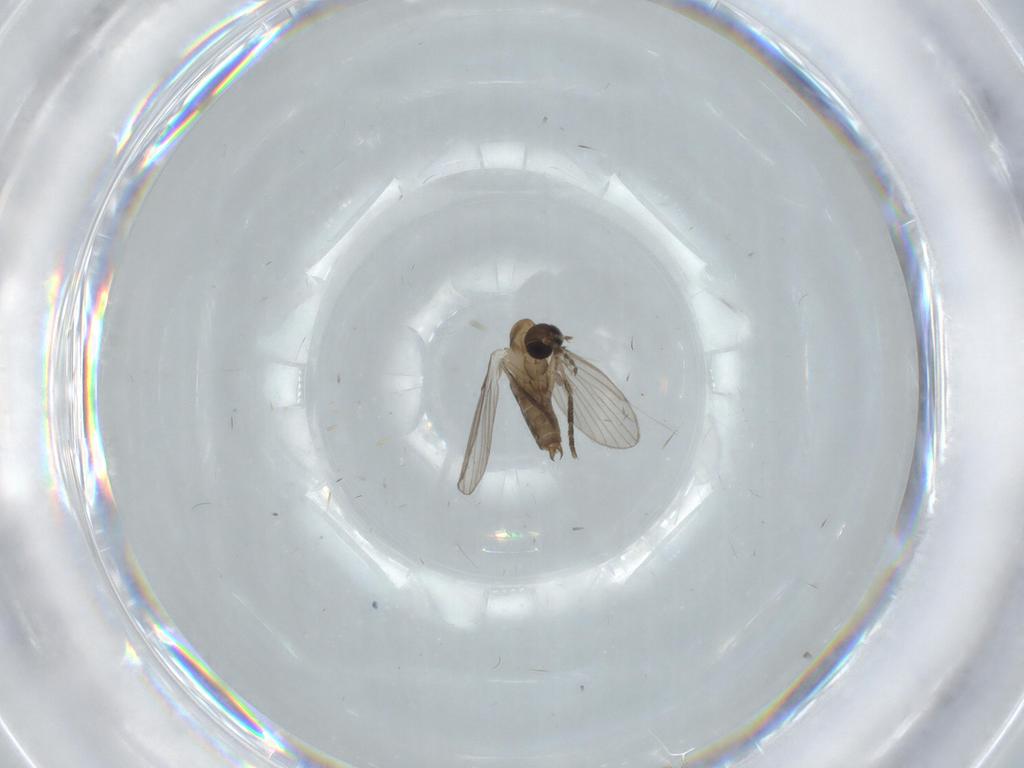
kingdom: Animalia
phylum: Arthropoda
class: Insecta
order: Diptera
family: Psychodidae
